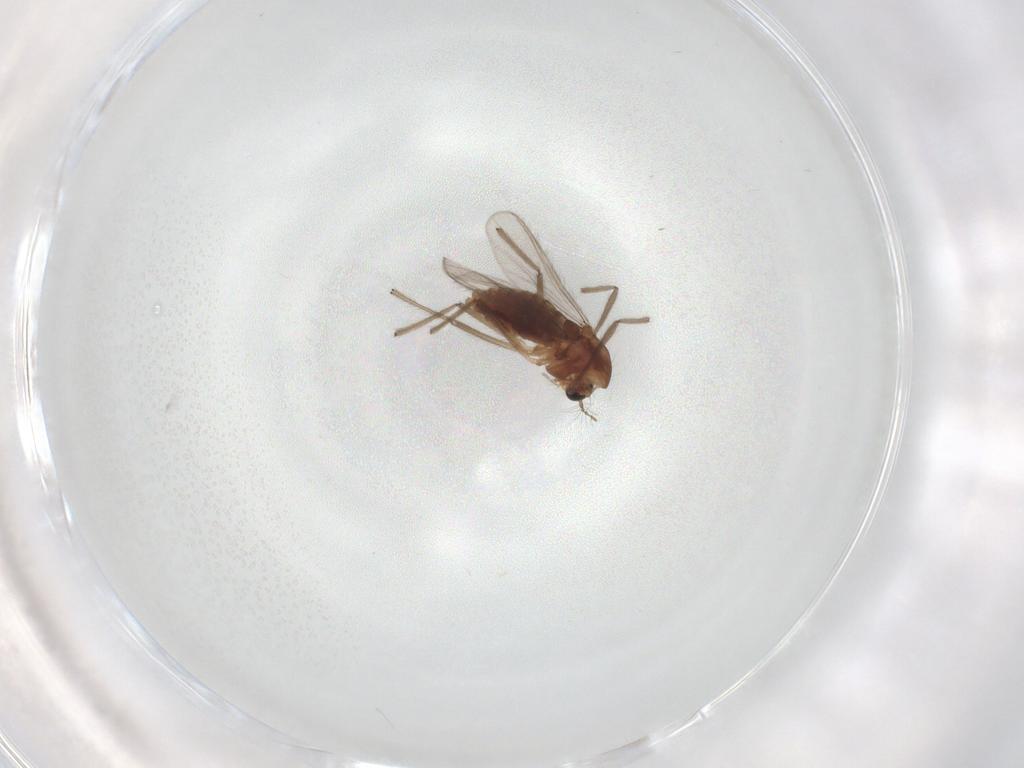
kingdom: Animalia
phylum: Arthropoda
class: Insecta
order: Diptera
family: Chironomidae
